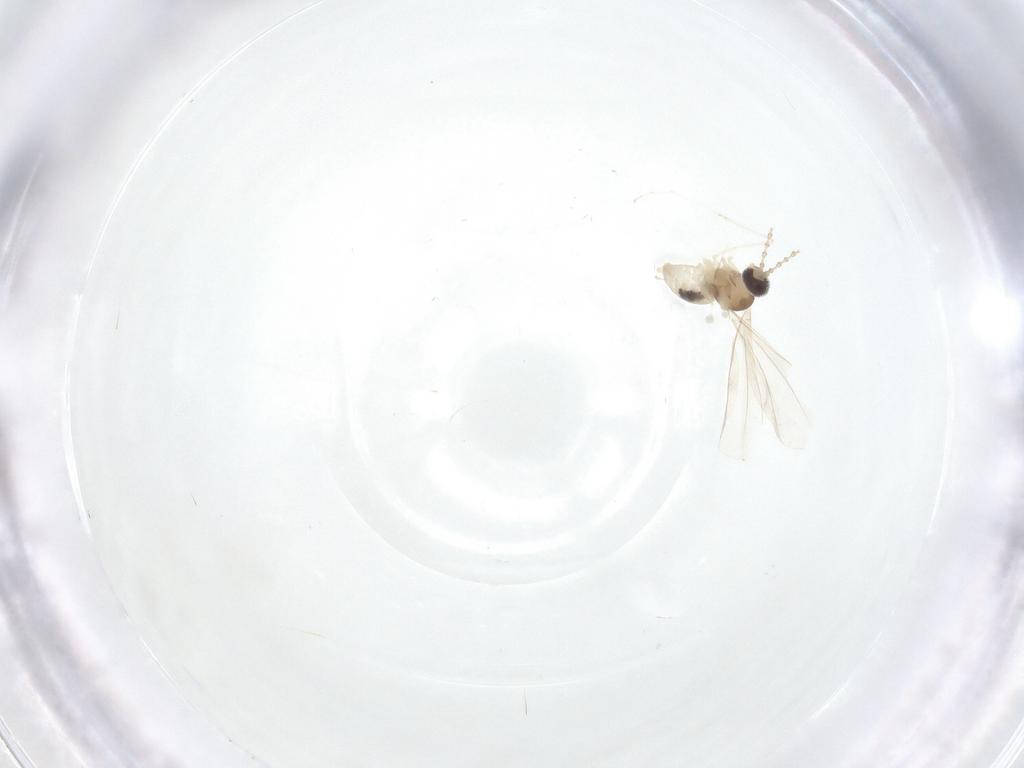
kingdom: Animalia
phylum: Arthropoda
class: Insecta
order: Diptera
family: Cecidomyiidae
